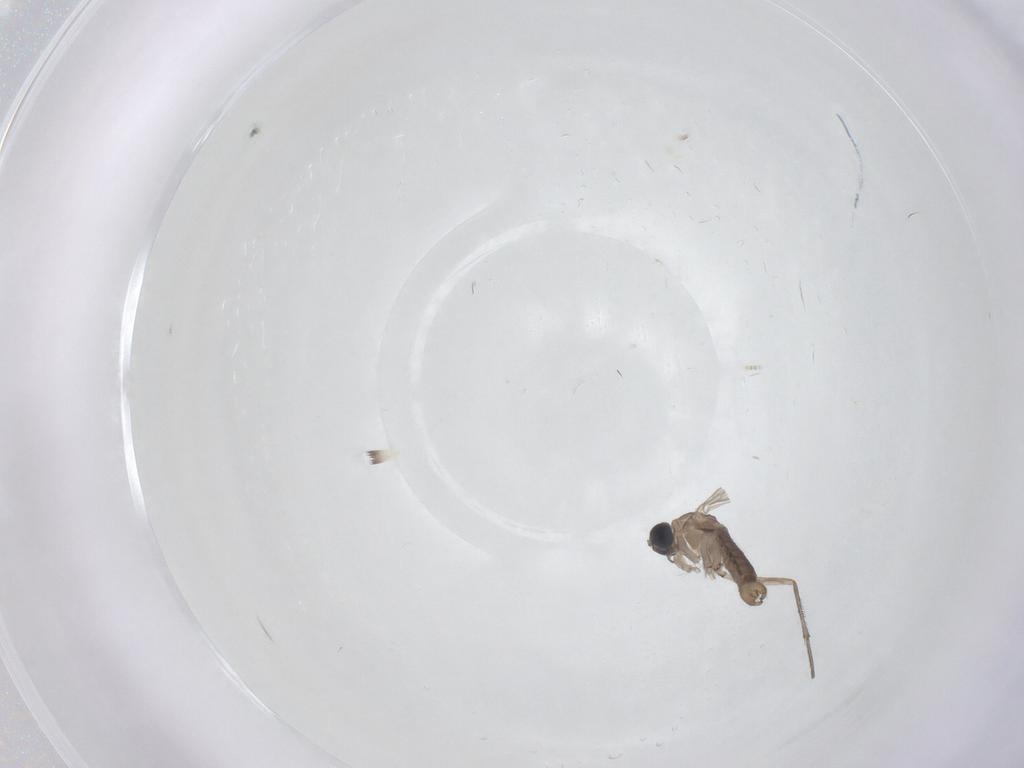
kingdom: Animalia
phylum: Arthropoda
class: Insecta
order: Diptera
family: Sciaridae
